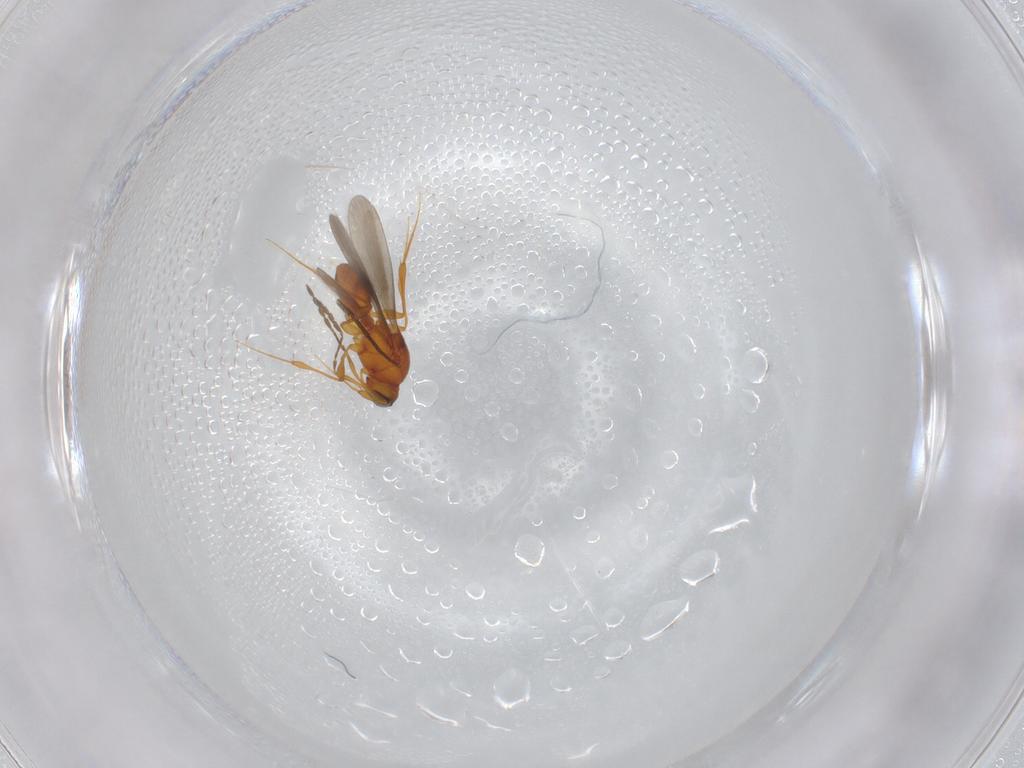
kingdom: Animalia
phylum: Arthropoda
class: Insecta
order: Hymenoptera
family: Platygastridae
